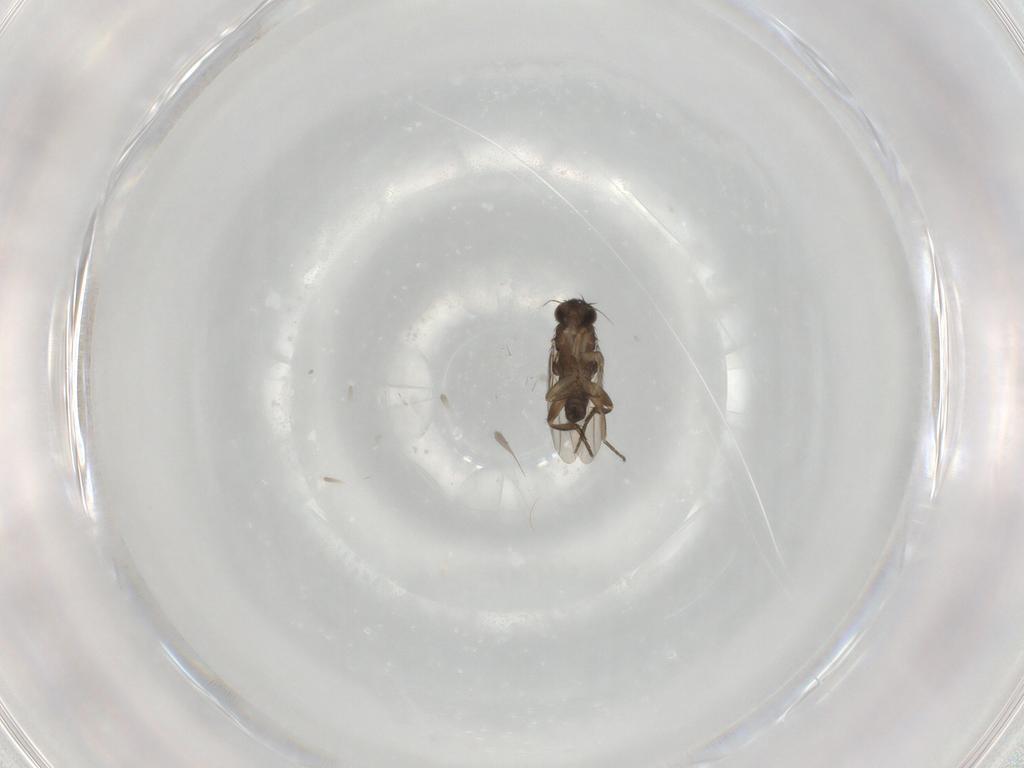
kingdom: Animalia
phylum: Arthropoda
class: Insecta
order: Diptera
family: Phoridae
